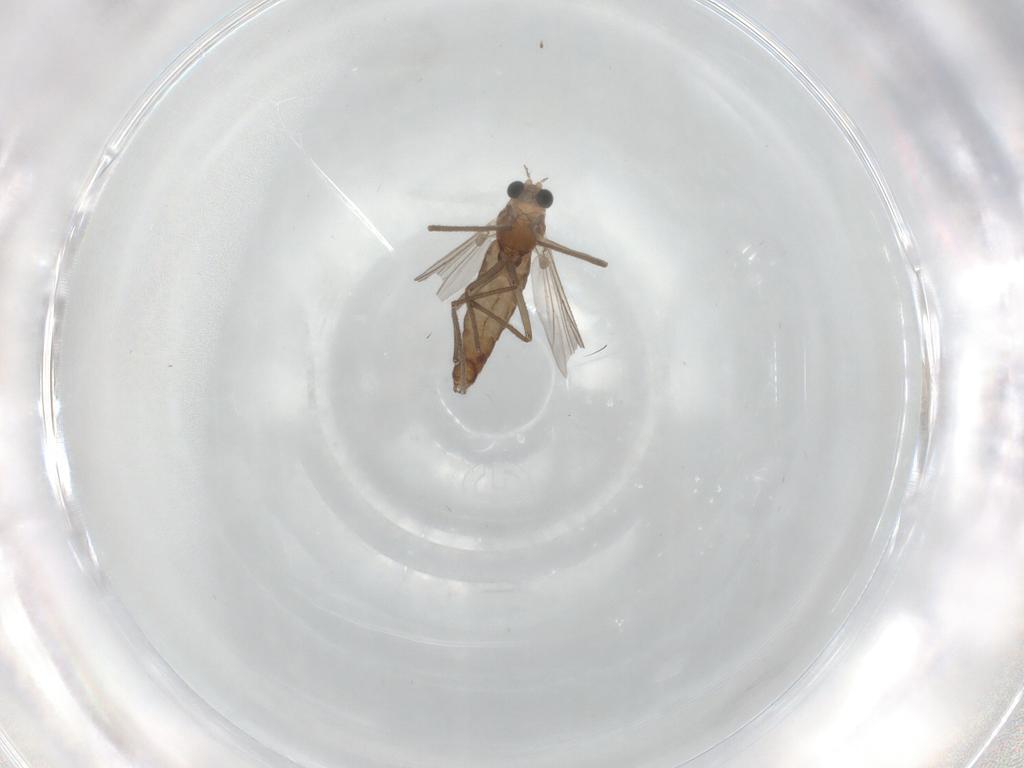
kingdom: Animalia
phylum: Arthropoda
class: Insecta
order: Diptera
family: Chironomidae
